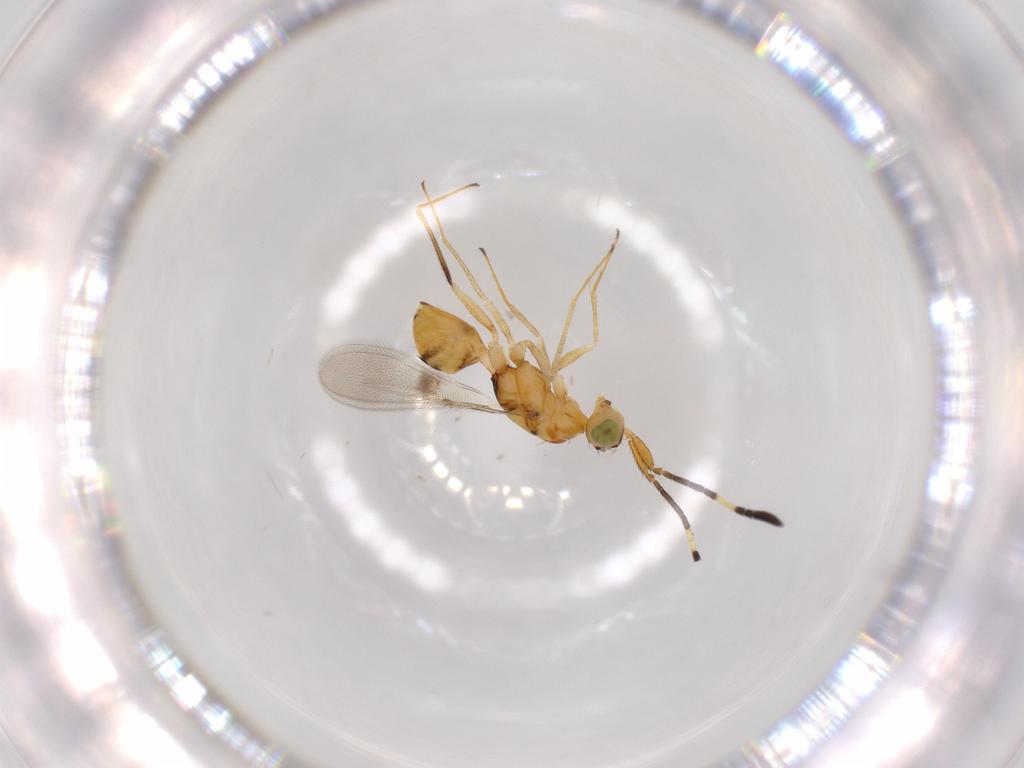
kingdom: Animalia
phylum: Arthropoda
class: Insecta
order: Hymenoptera
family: Mymaridae
